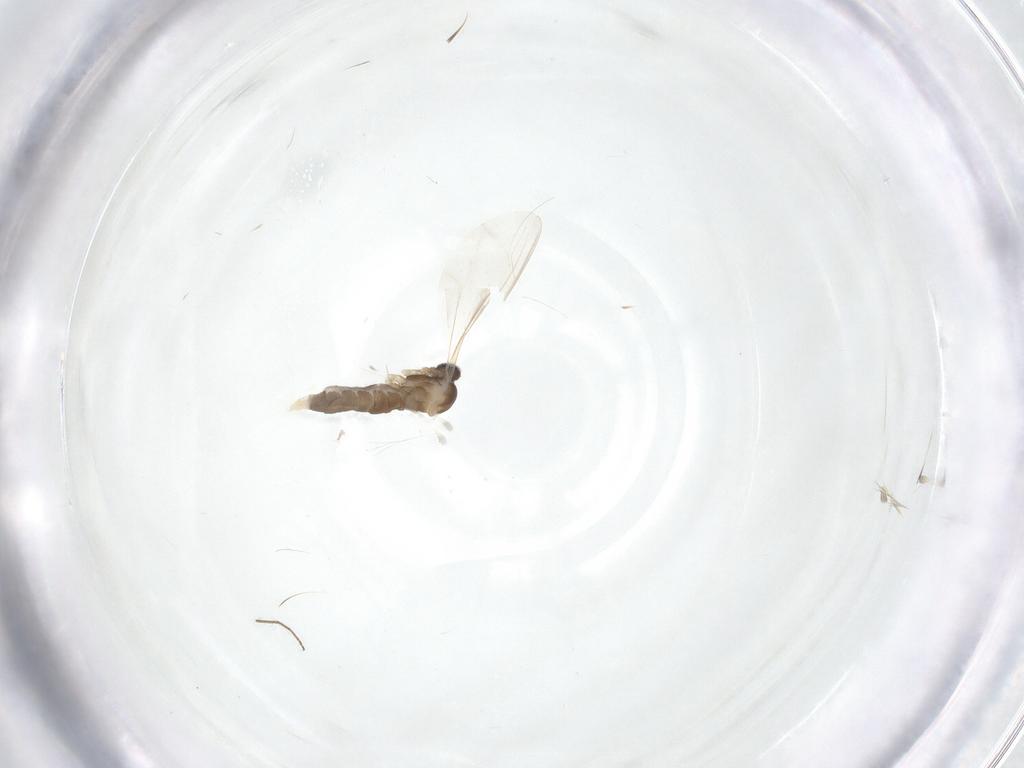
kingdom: Animalia
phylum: Arthropoda
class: Insecta
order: Diptera
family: Cecidomyiidae
